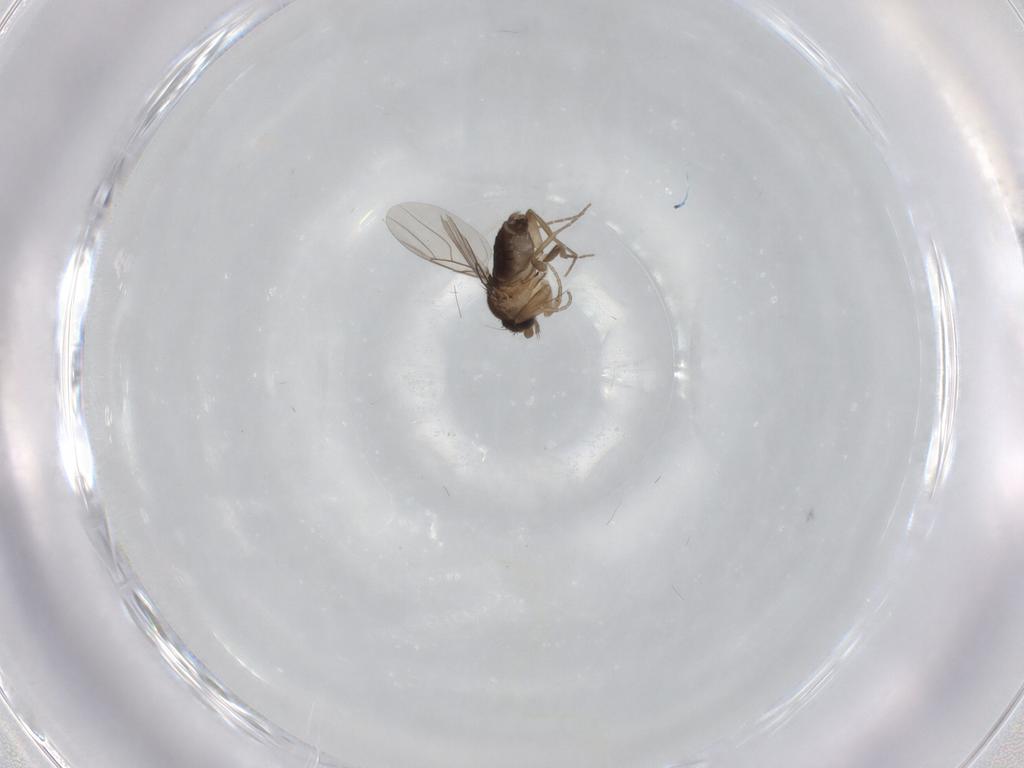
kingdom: Animalia
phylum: Arthropoda
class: Insecta
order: Diptera
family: Phoridae
